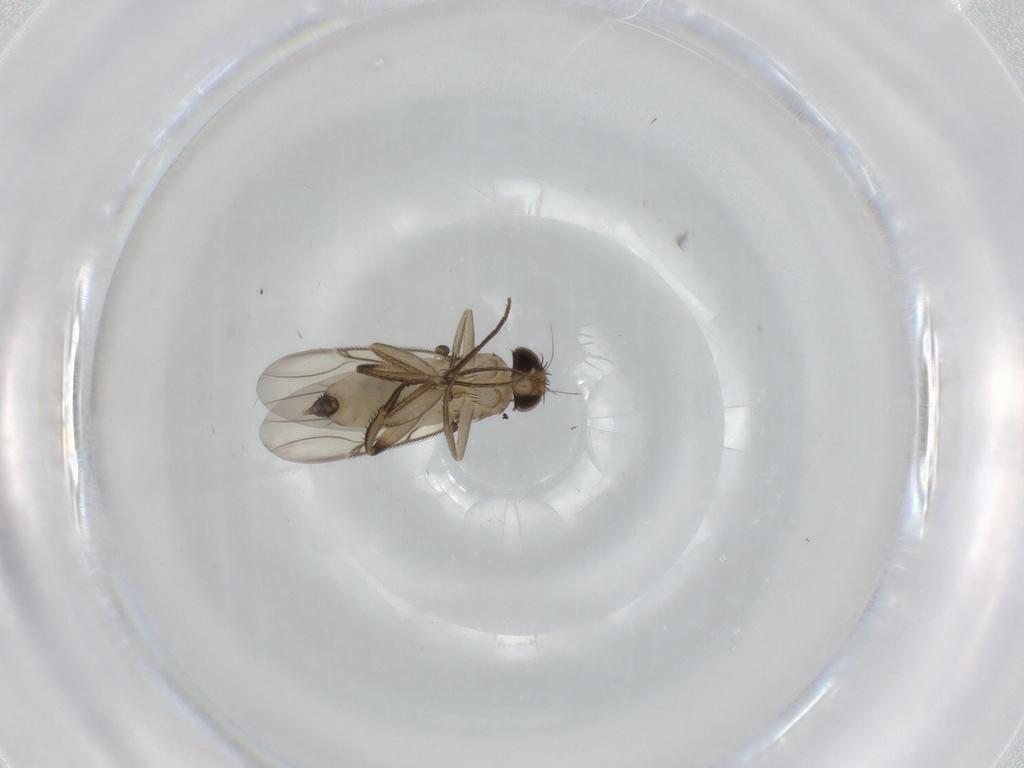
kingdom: Animalia
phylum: Arthropoda
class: Insecta
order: Diptera
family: Phoridae
